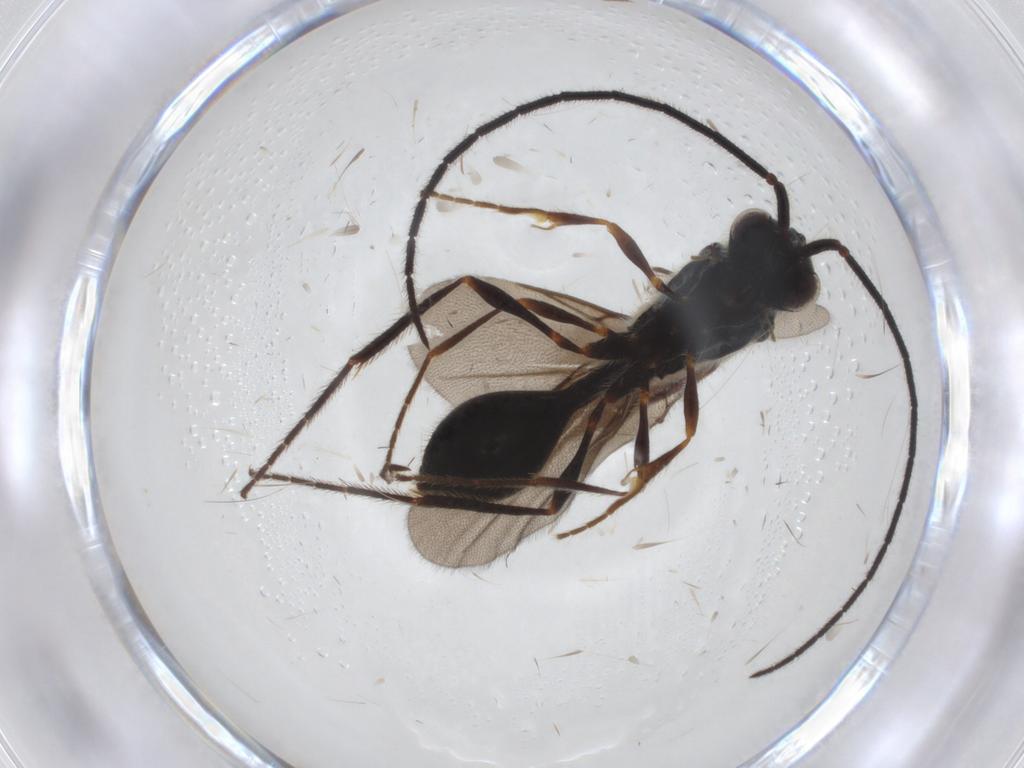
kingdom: Animalia
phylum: Arthropoda
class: Insecta
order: Hymenoptera
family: Diapriidae
